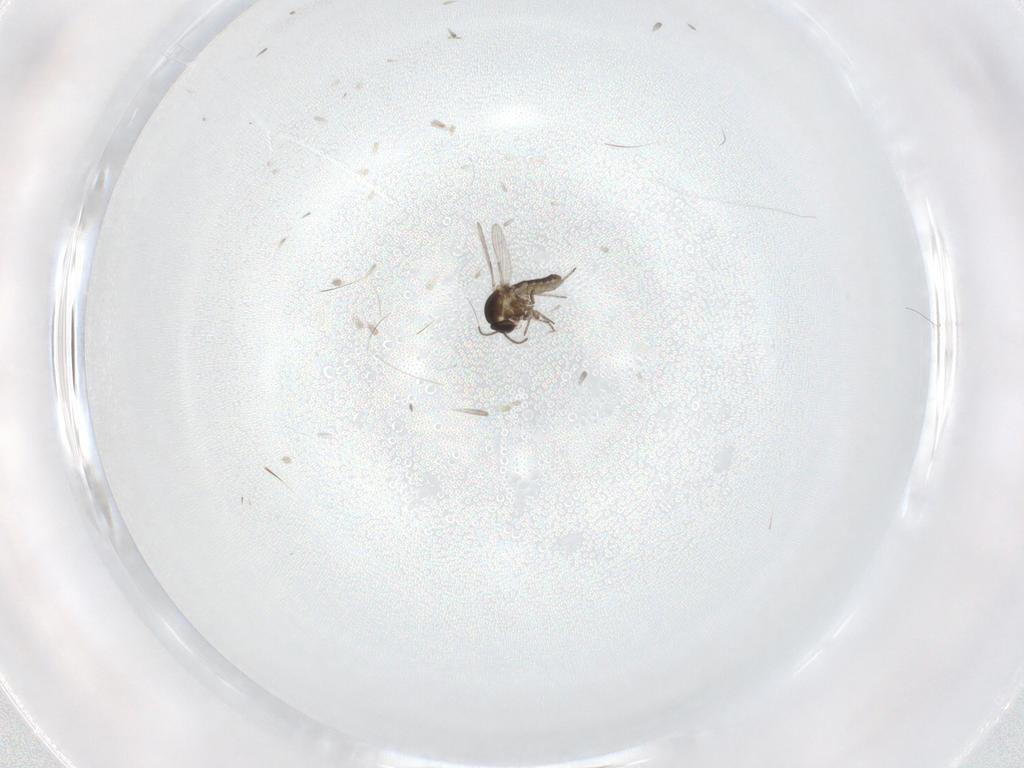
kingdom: Animalia
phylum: Arthropoda
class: Insecta
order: Diptera
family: Ceratopogonidae
